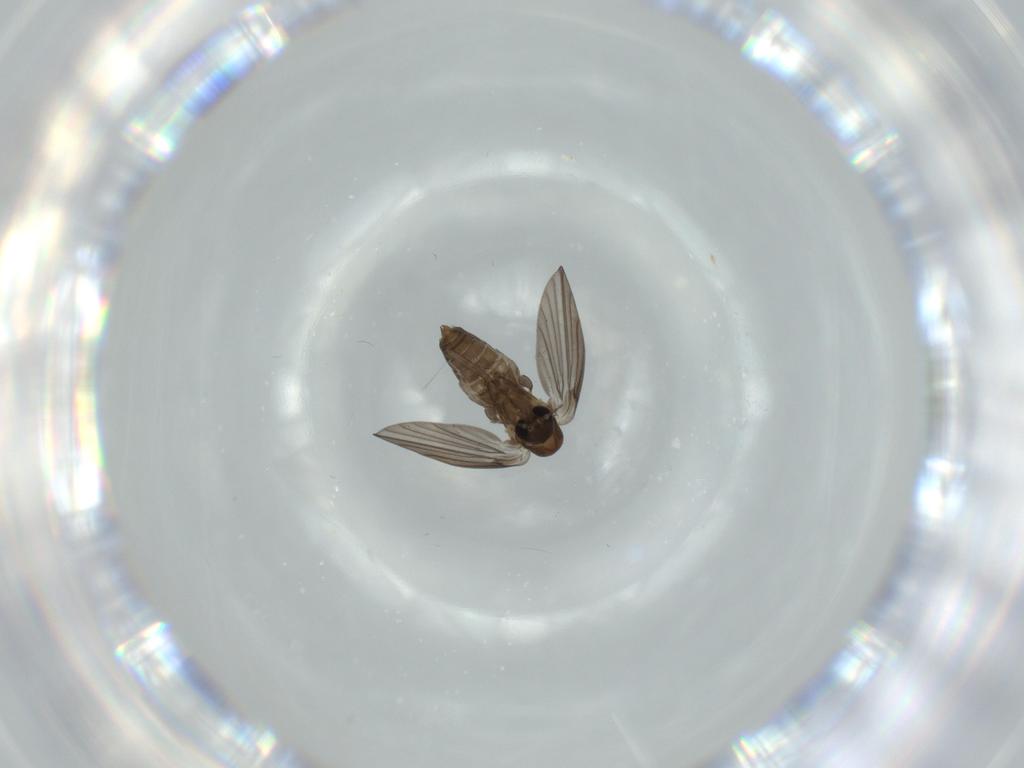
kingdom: Animalia
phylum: Arthropoda
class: Insecta
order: Diptera
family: Psychodidae
